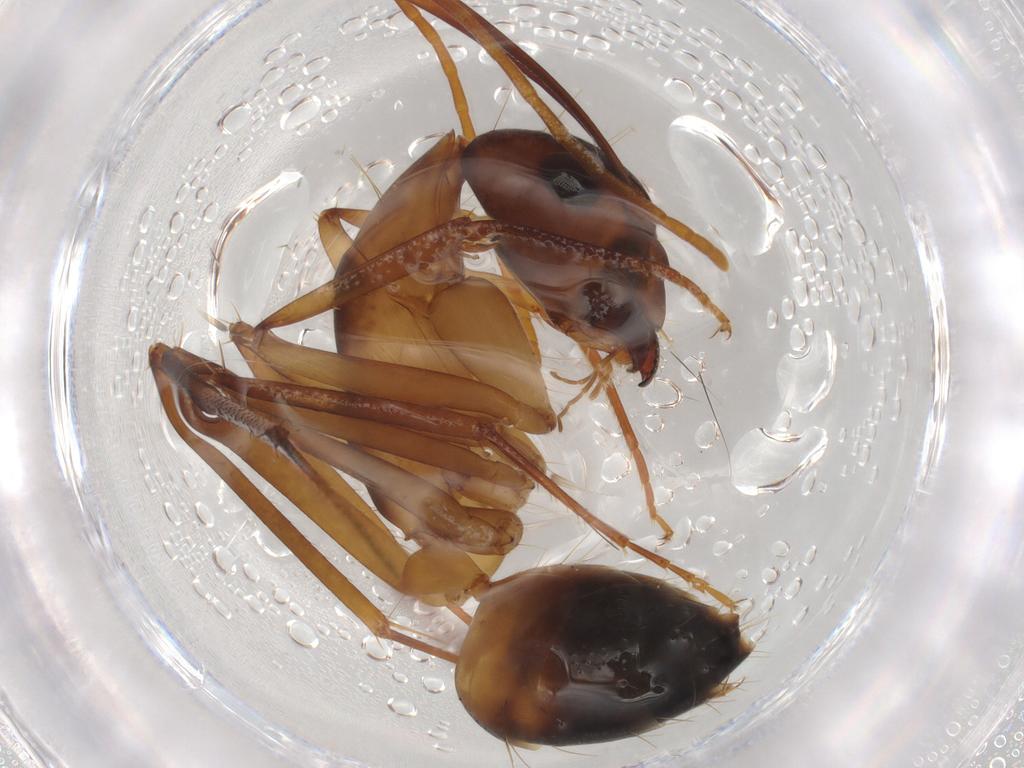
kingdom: Animalia
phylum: Arthropoda
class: Insecta
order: Hymenoptera
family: Formicidae
